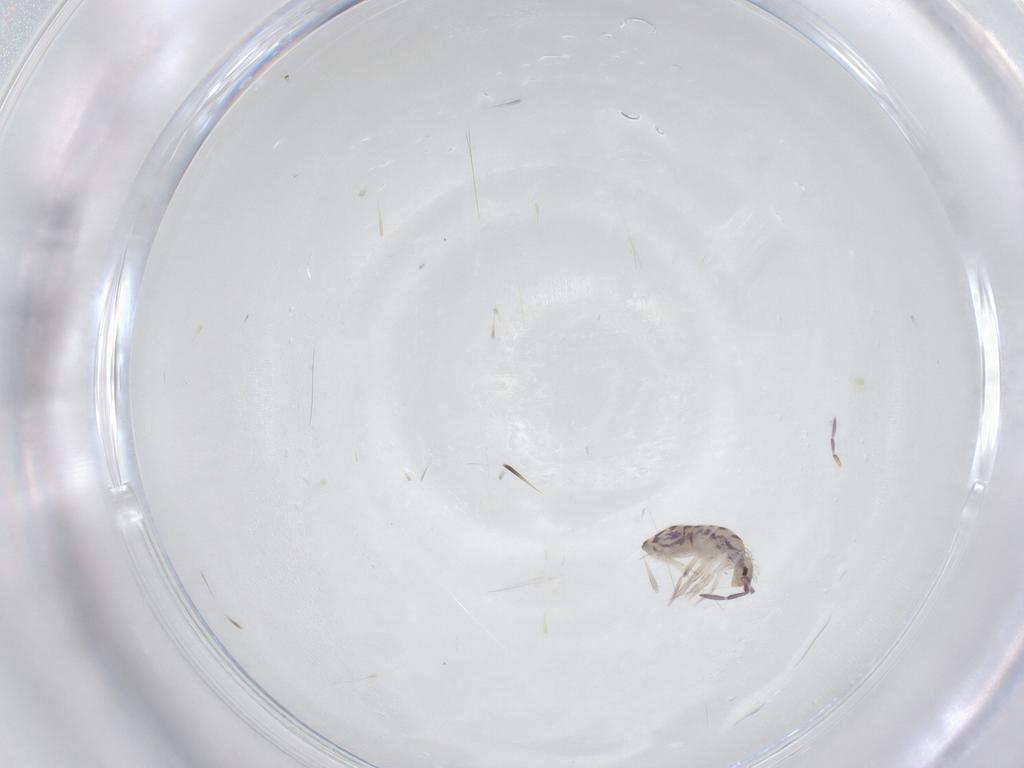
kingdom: Animalia
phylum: Arthropoda
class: Collembola
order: Entomobryomorpha
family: Entomobryidae
